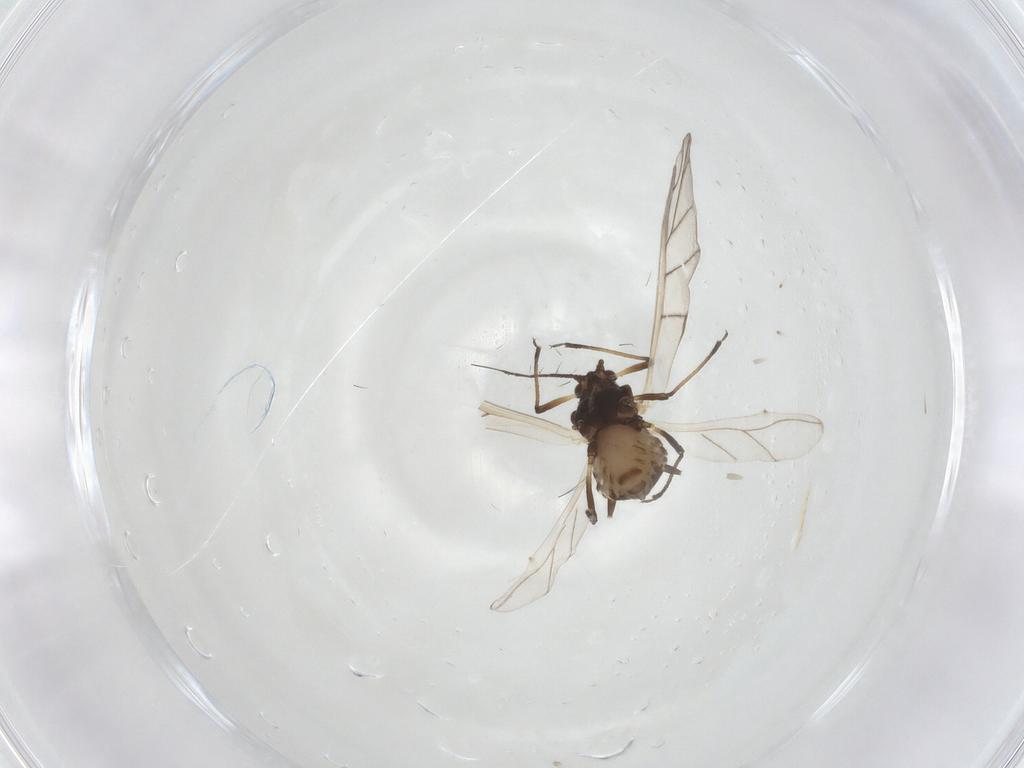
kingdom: Animalia
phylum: Arthropoda
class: Insecta
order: Hemiptera
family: Aphididae
